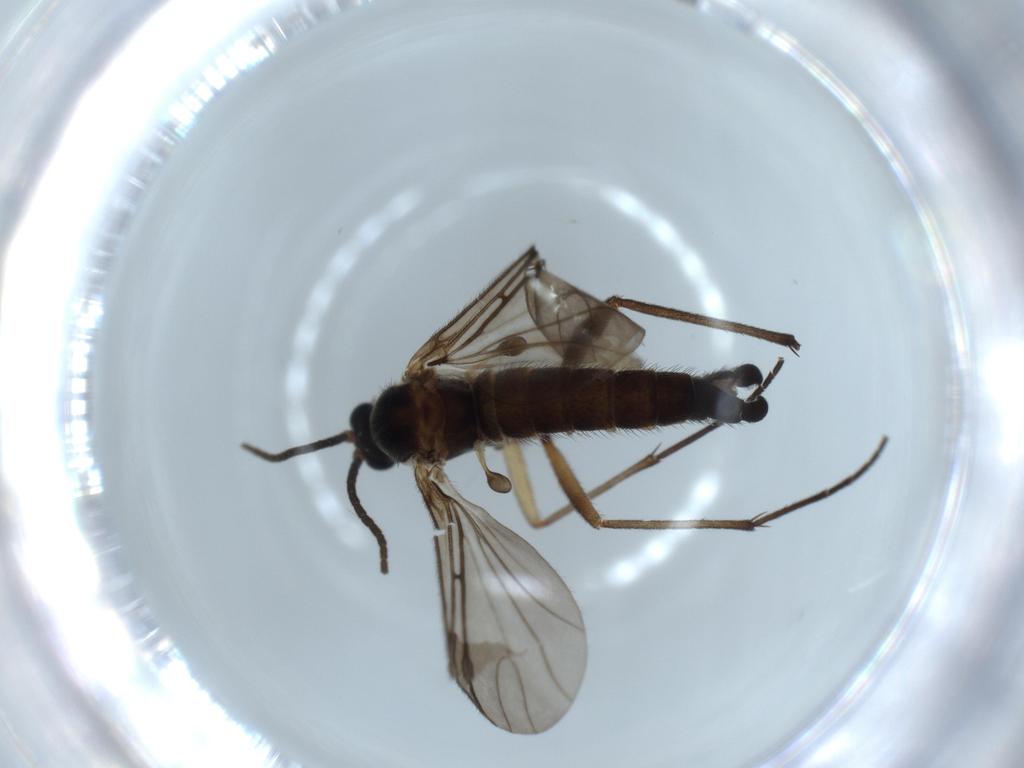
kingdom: Animalia
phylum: Arthropoda
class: Insecta
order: Diptera
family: Sciaridae
